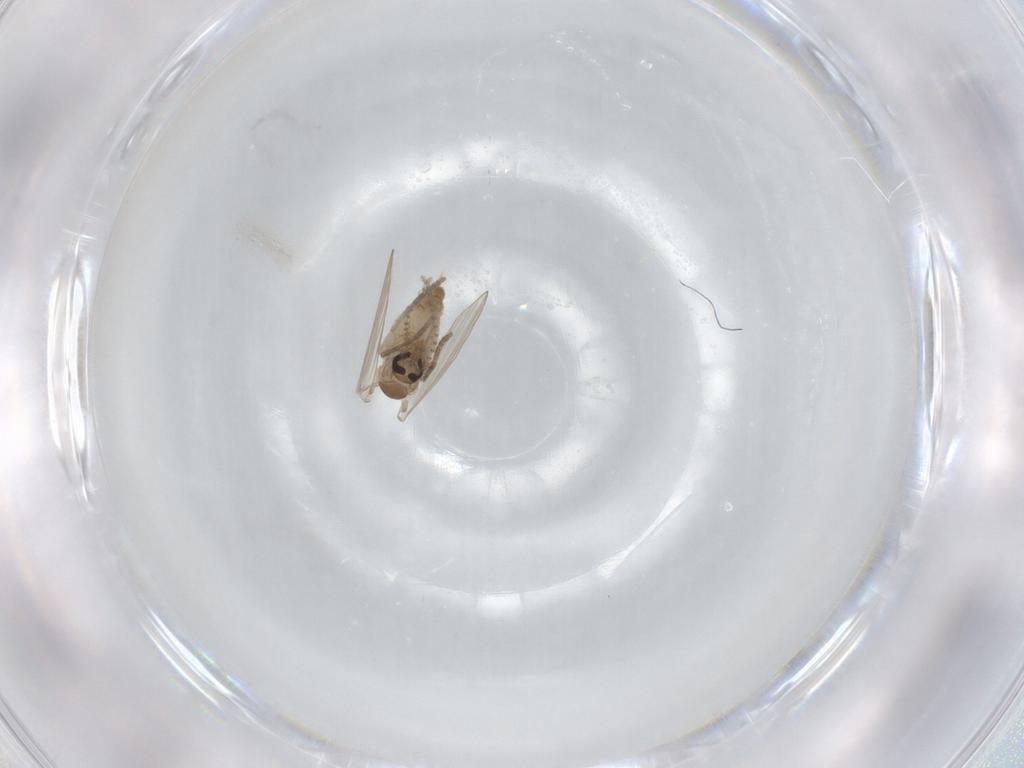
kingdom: Animalia
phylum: Arthropoda
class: Insecta
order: Diptera
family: Psychodidae
